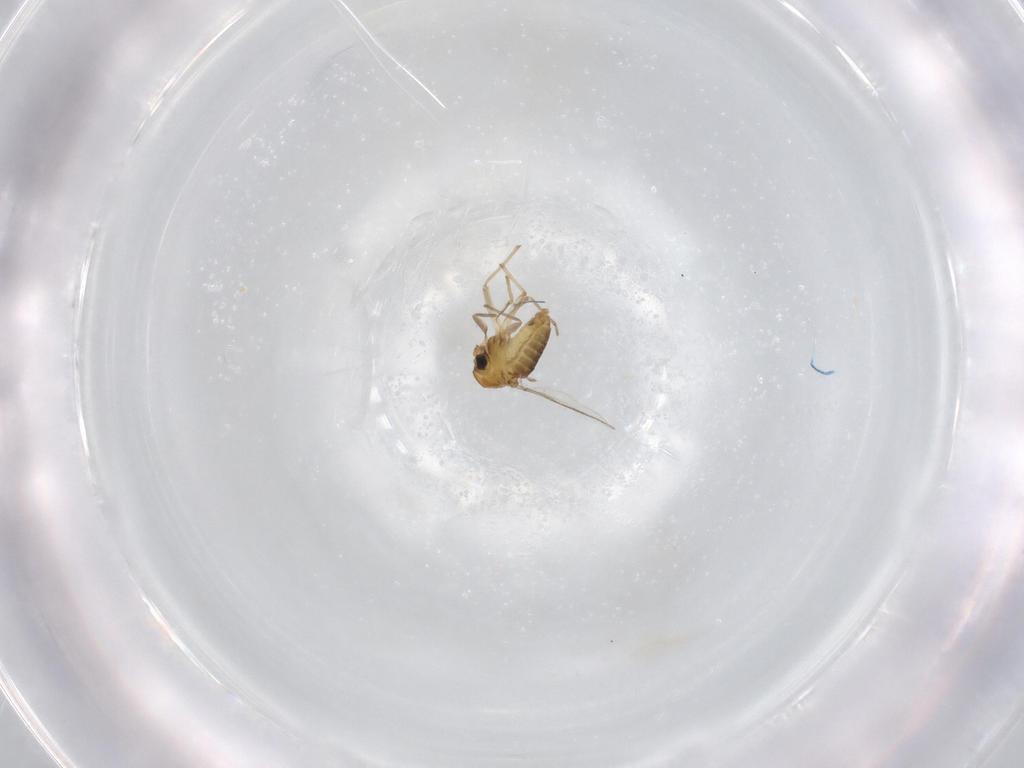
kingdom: Animalia
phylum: Arthropoda
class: Insecta
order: Diptera
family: Chironomidae
